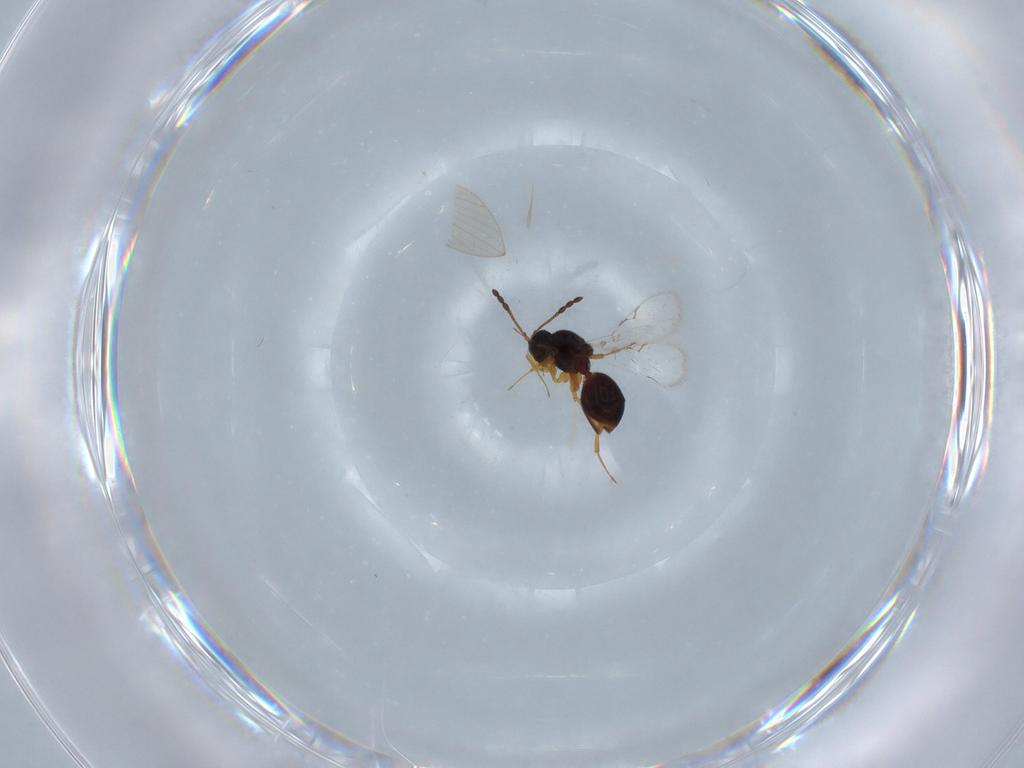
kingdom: Animalia
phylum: Arthropoda
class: Insecta
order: Hymenoptera
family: Figitidae
